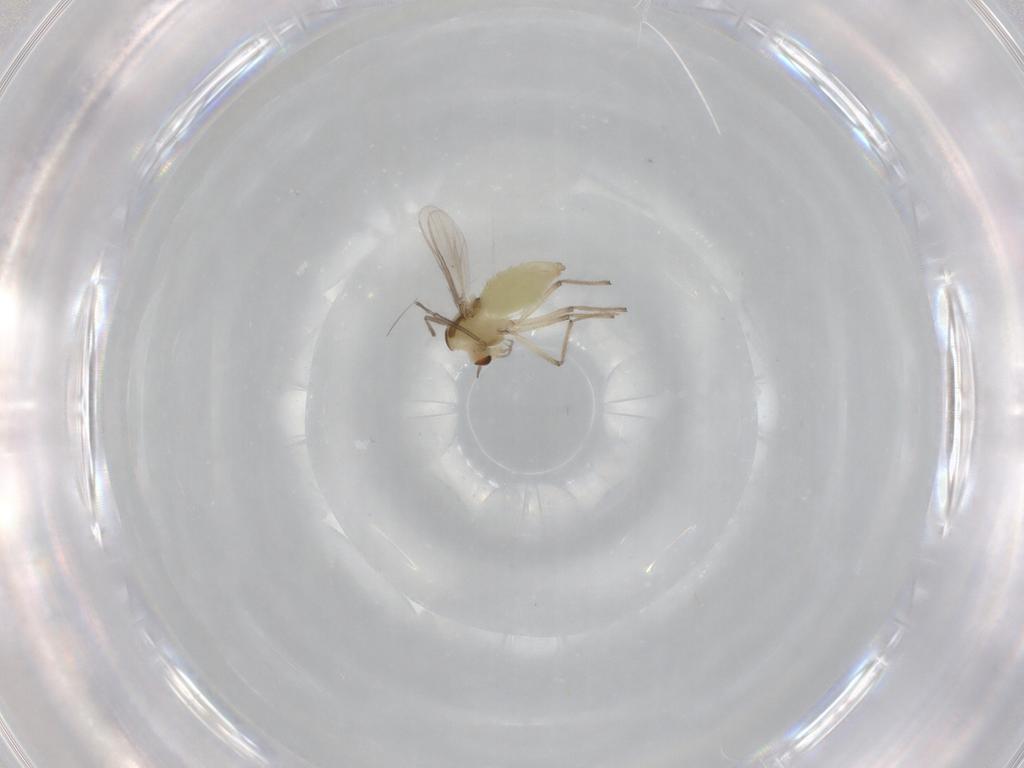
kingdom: Animalia
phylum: Arthropoda
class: Insecta
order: Diptera
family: Chironomidae
